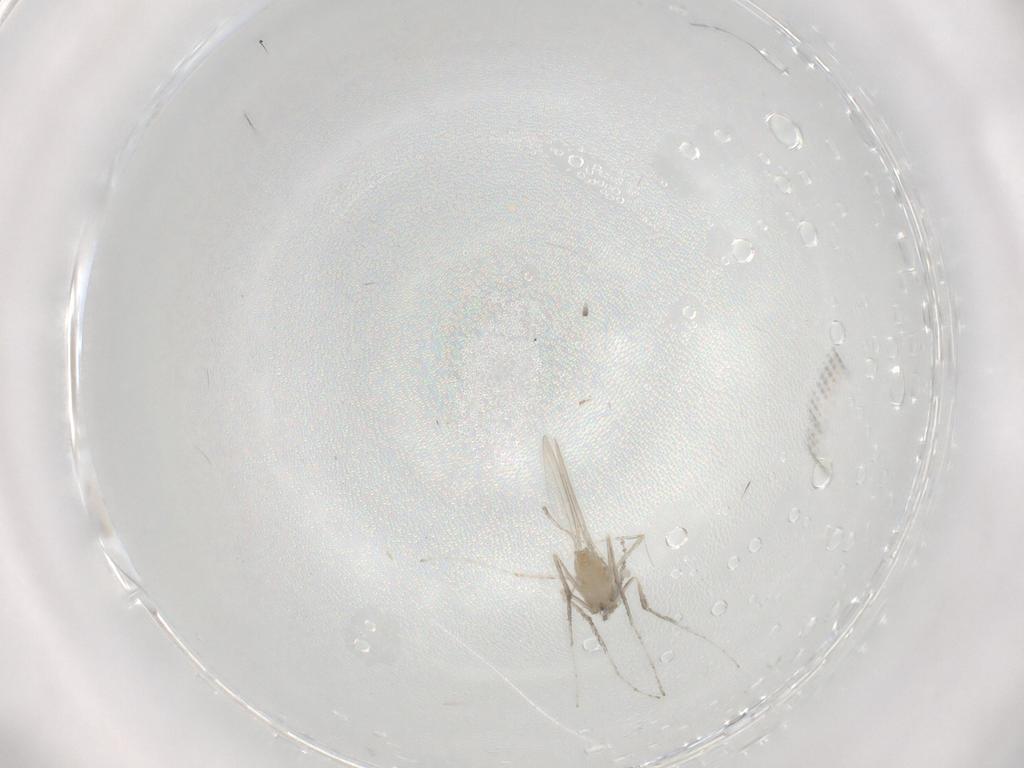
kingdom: Animalia
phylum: Arthropoda
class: Insecta
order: Diptera
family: Cecidomyiidae
